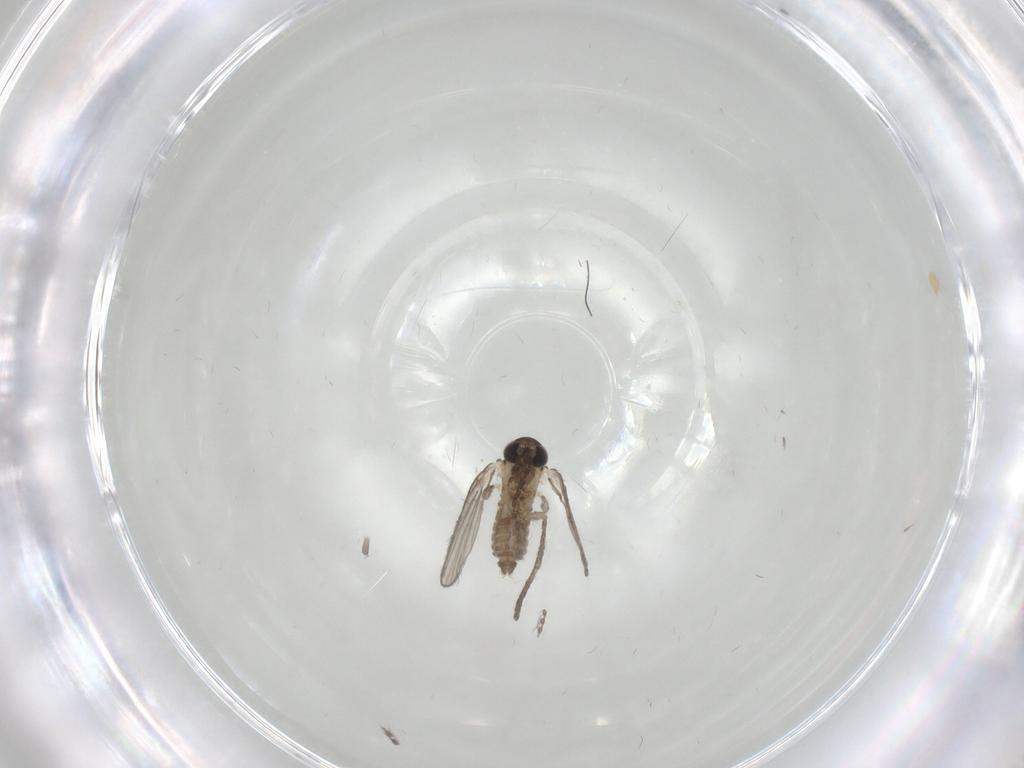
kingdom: Animalia
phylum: Arthropoda
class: Insecta
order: Diptera
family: Psychodidae
